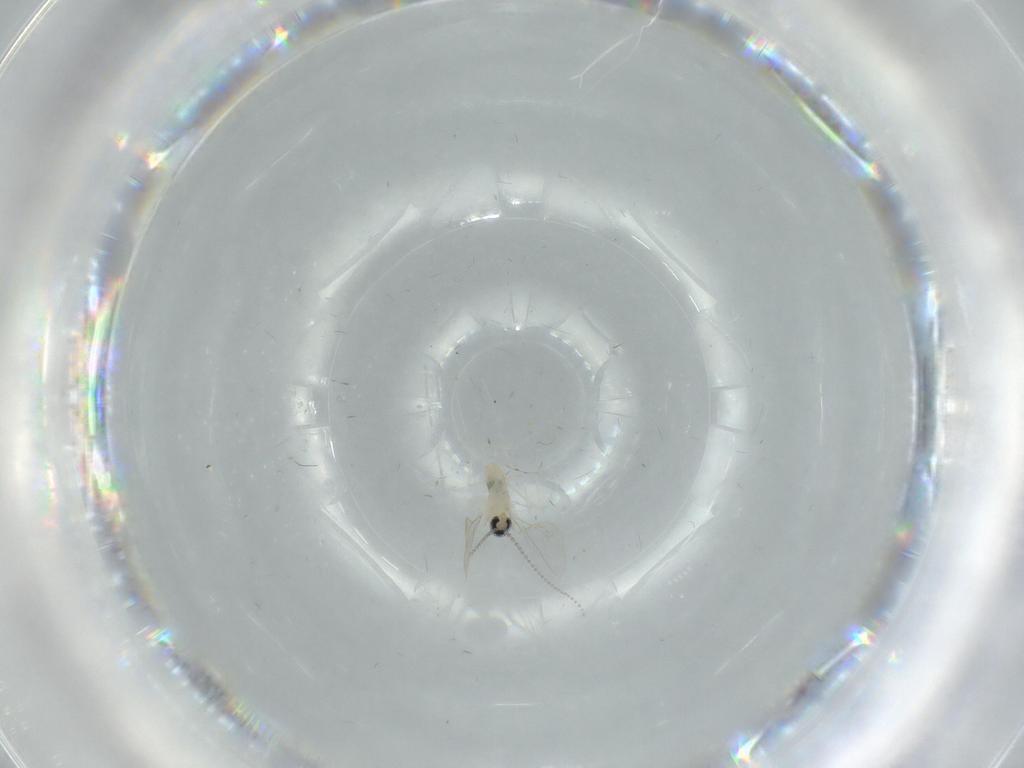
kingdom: Animalia
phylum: Arthropoda
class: Insecta
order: Diptera
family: Cecidomyiidae
